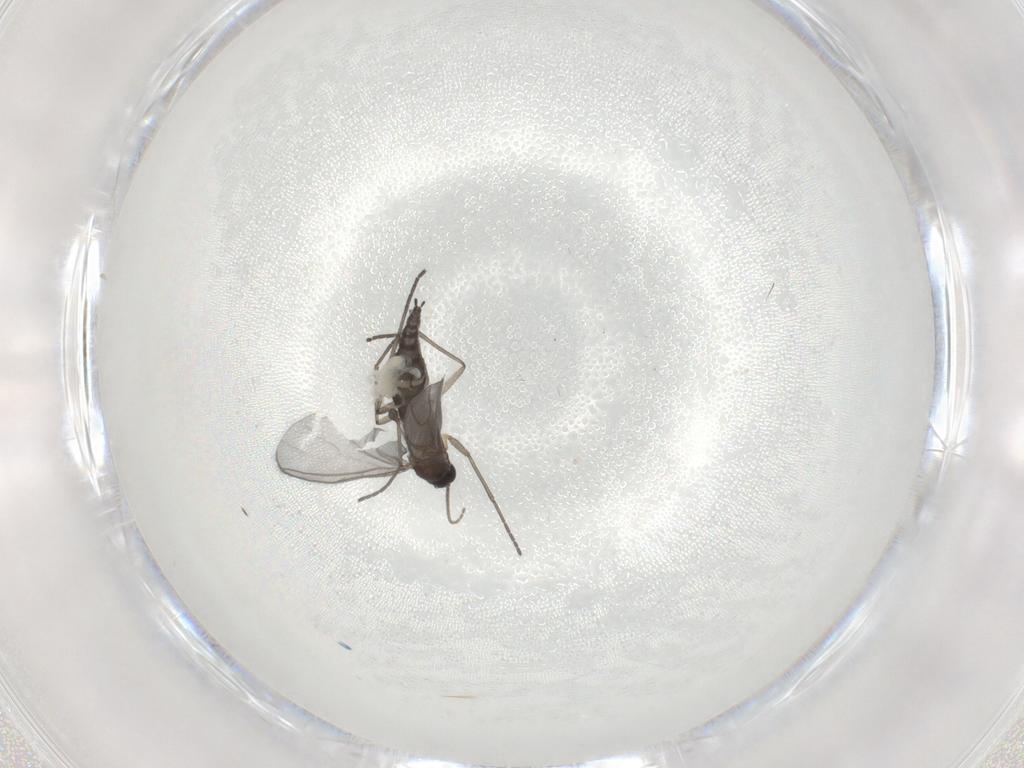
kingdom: Animalia
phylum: Arthropoda
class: Insecta
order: Diptera
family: Sciaridae
